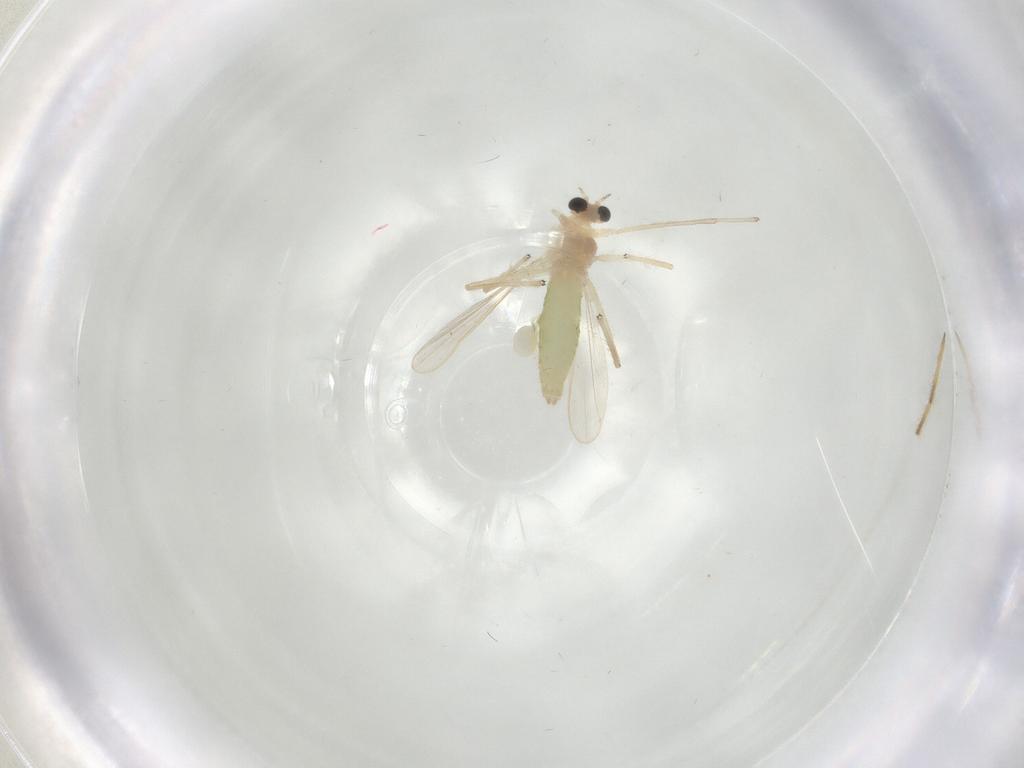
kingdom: Animalia
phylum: Arthropoda
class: Insecta
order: Diptera
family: Chironomidae
